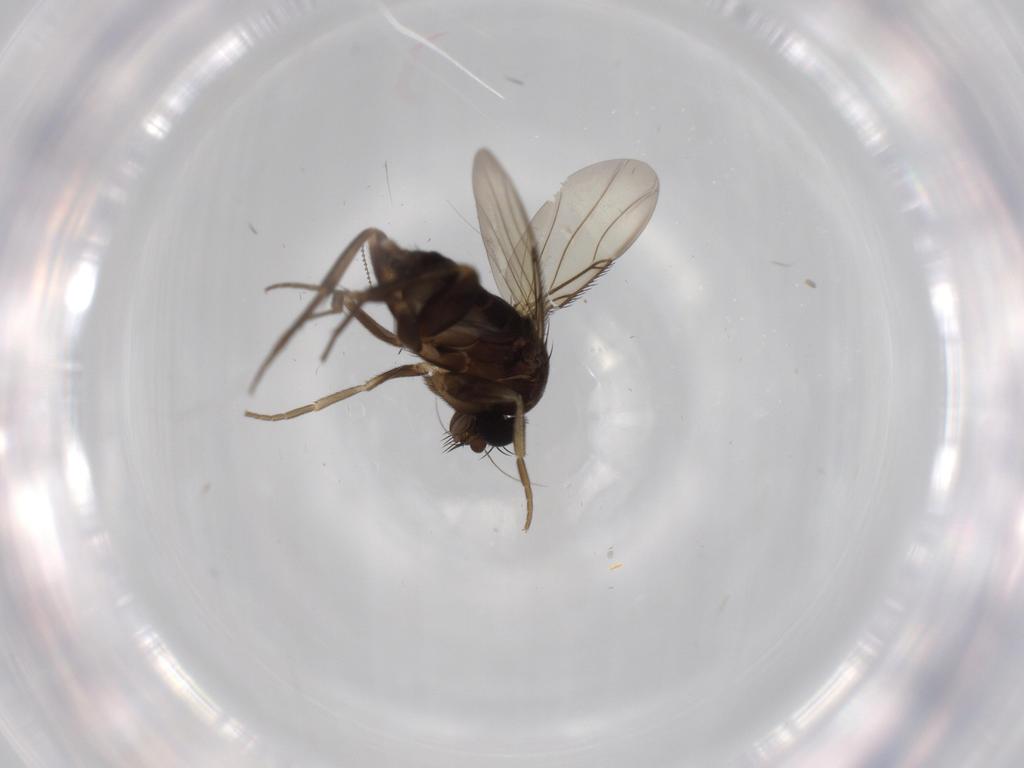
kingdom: Animalia
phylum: Arthropoda
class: Insecta
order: Diptera
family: Phoridae
